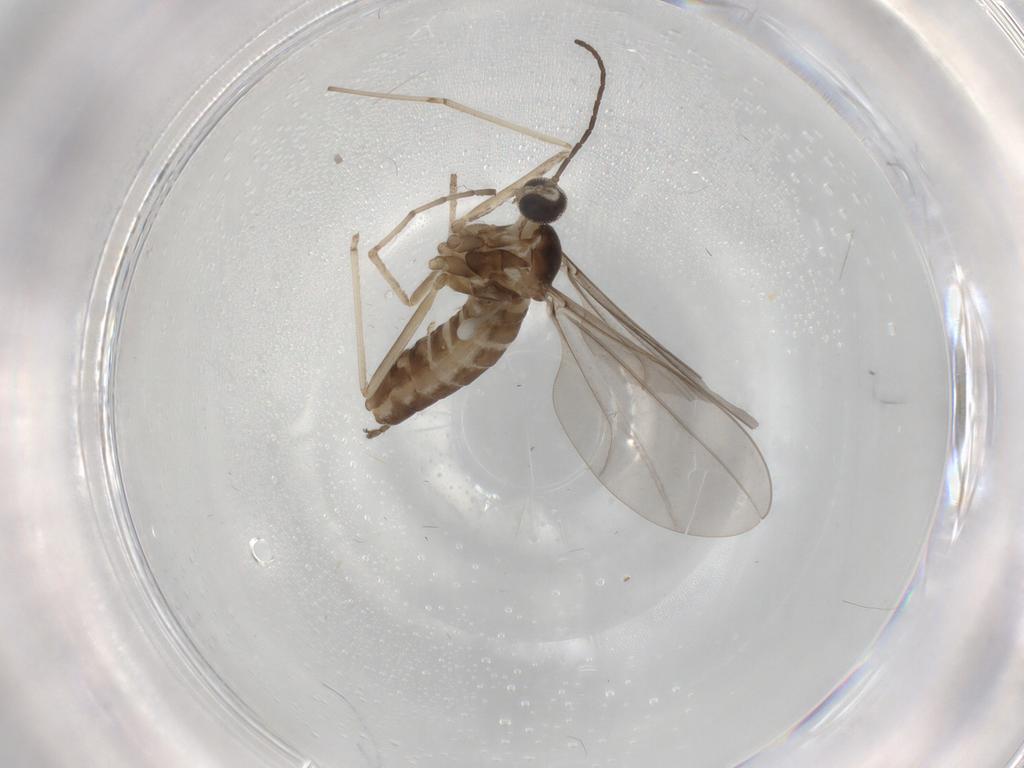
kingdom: Animalia
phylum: Arthropoda
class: Insecta
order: Diptera
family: Cecidomyiidae
